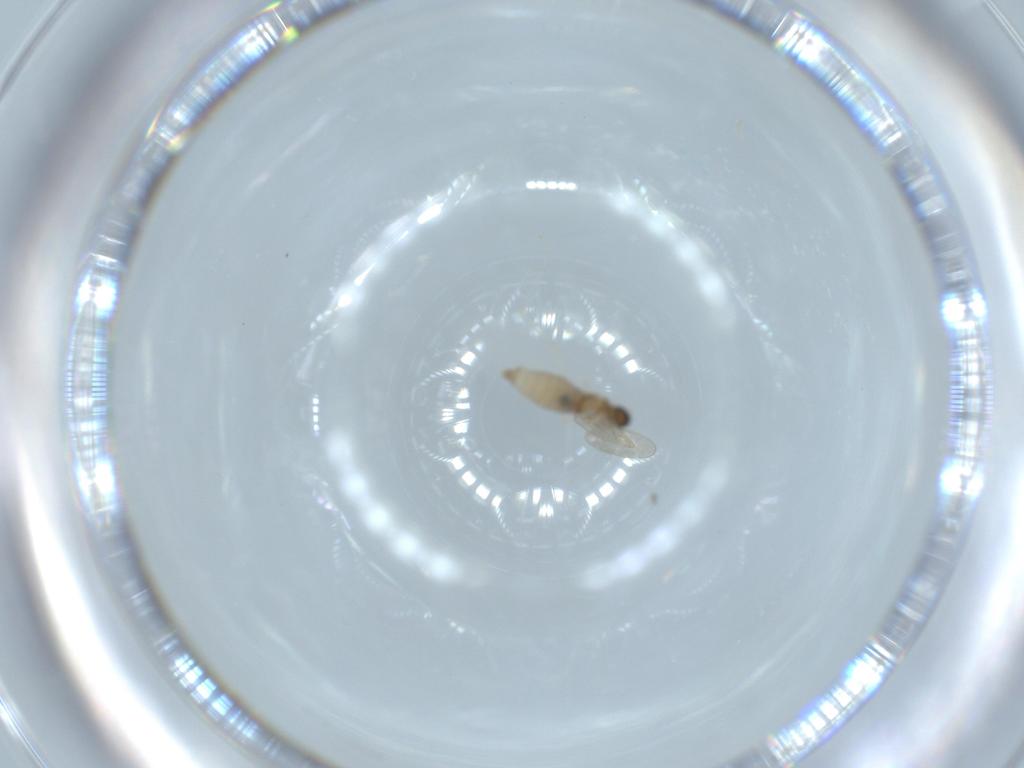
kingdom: Animalia
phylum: Arthropoda
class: Insecta
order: Diptera
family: Cecidomyiidae
